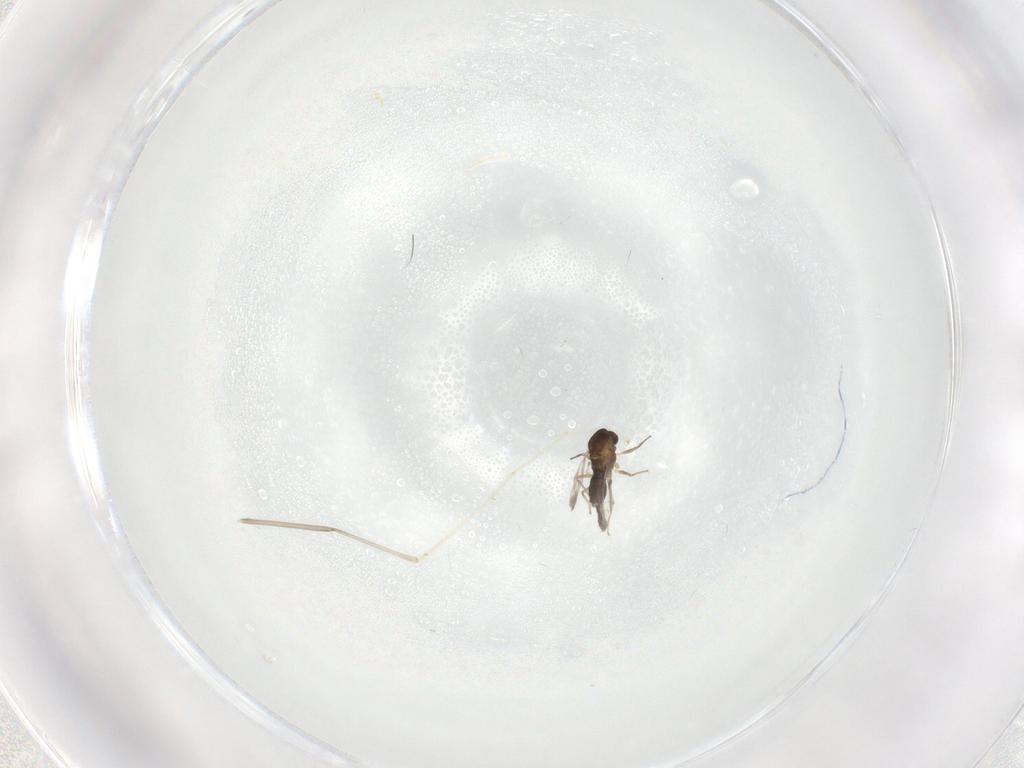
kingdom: Animalia
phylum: Arthropoda
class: Insecta
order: Diptera
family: Chironomidae
